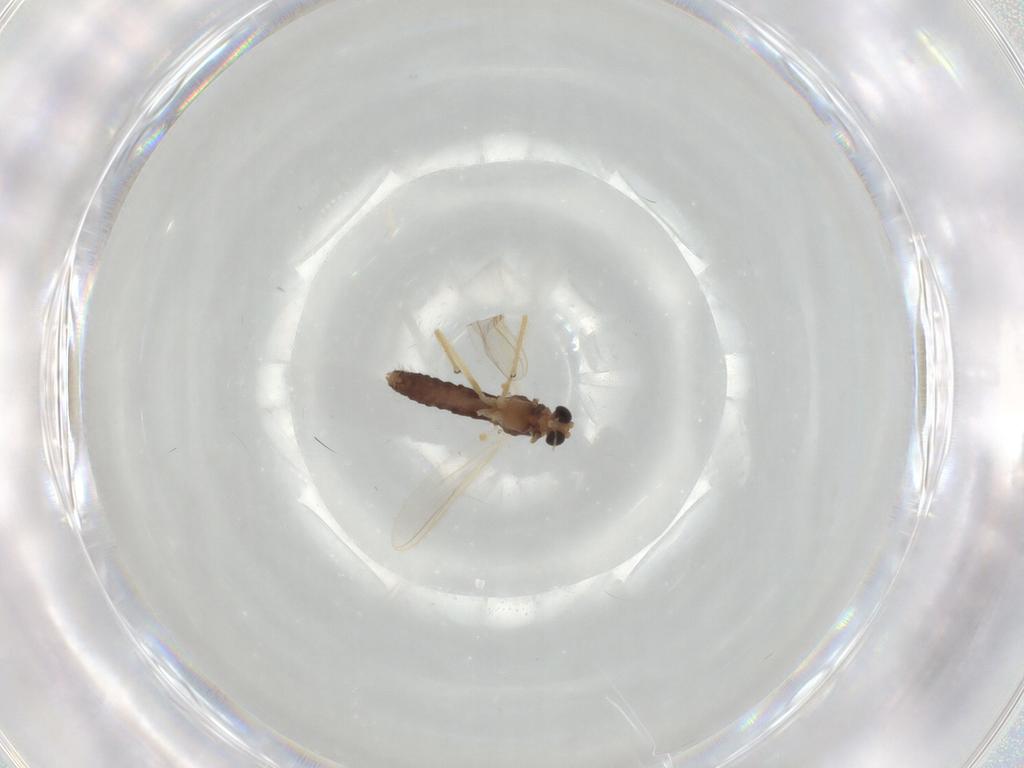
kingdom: Animalia
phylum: Arthropoda
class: Insecta
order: Diptera
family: Chironomidae
